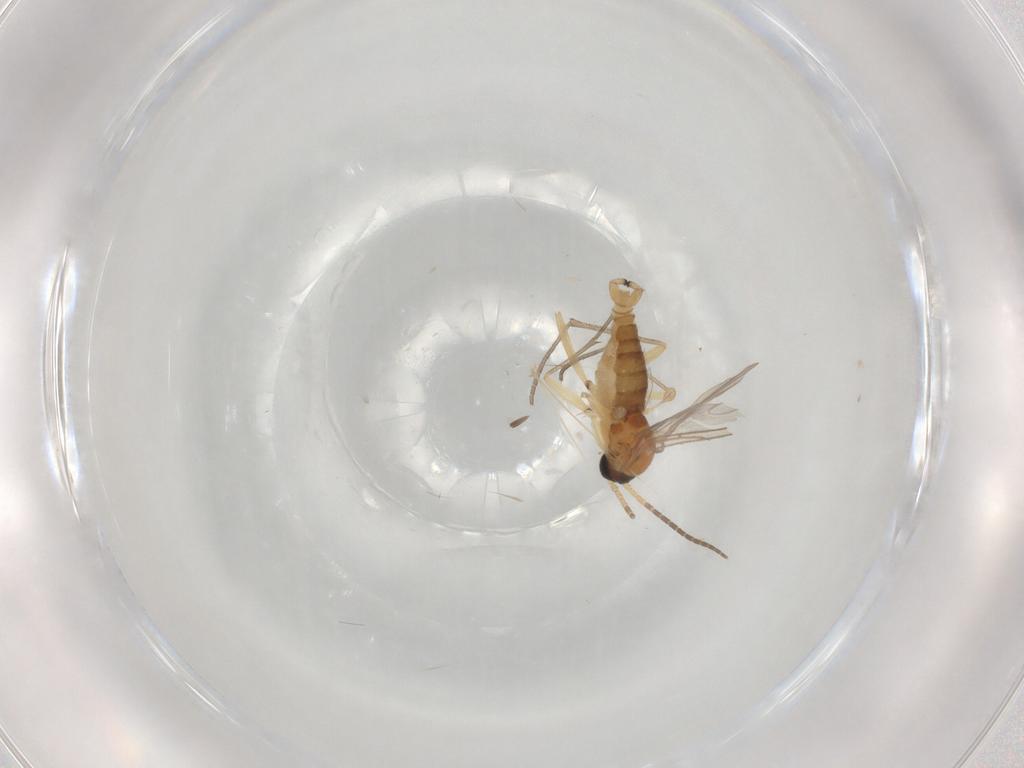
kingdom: Animalia
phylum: Arthropoda
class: Insecta
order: Diptera
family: Sciaridae
